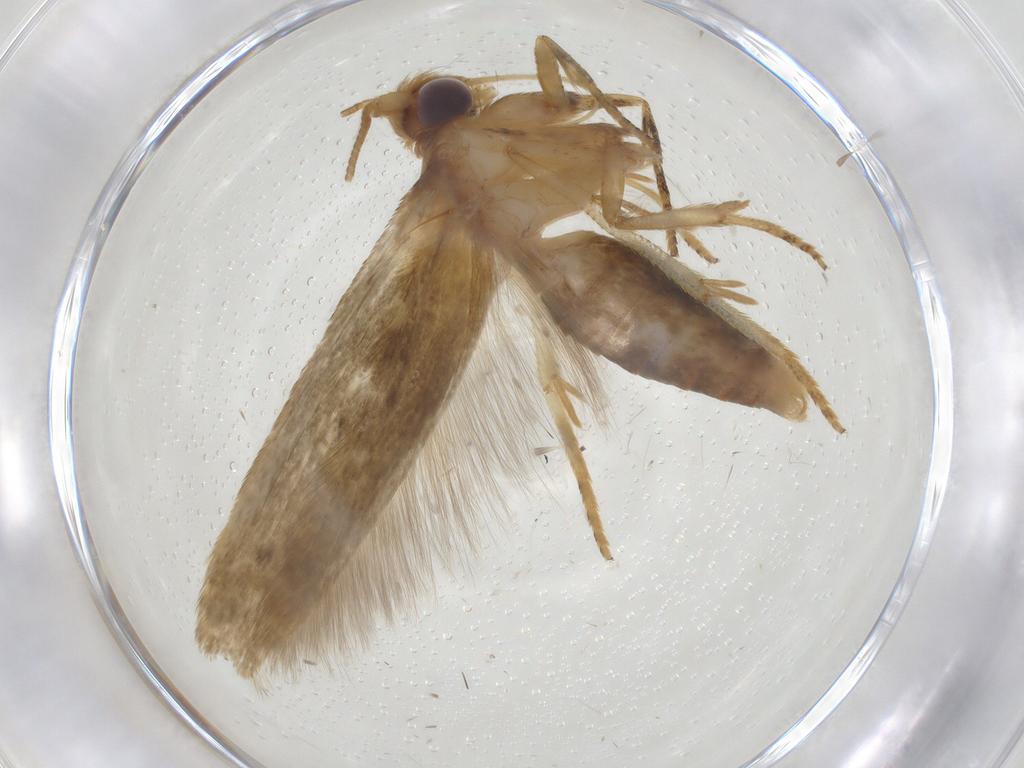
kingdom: Animalia
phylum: Arthropoda
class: Insecta
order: Lepidoptera
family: Blastobasidae
